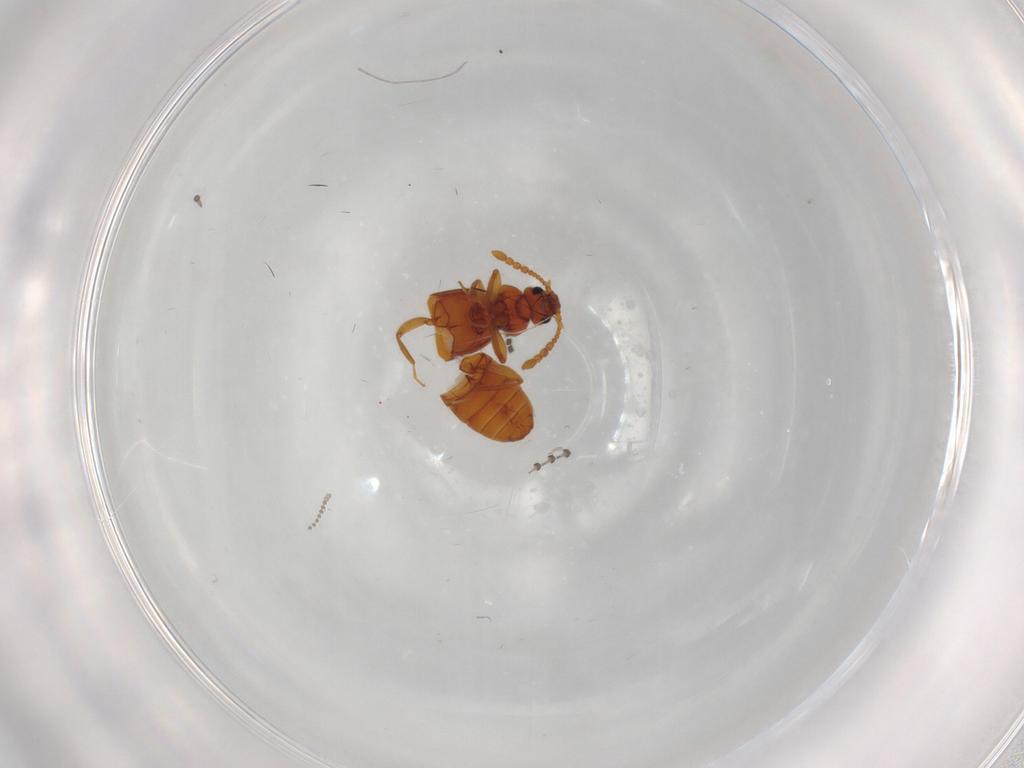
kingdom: Animalia
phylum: Arthropoda
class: Insecta
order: Coleoptera
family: Staphylinidae
